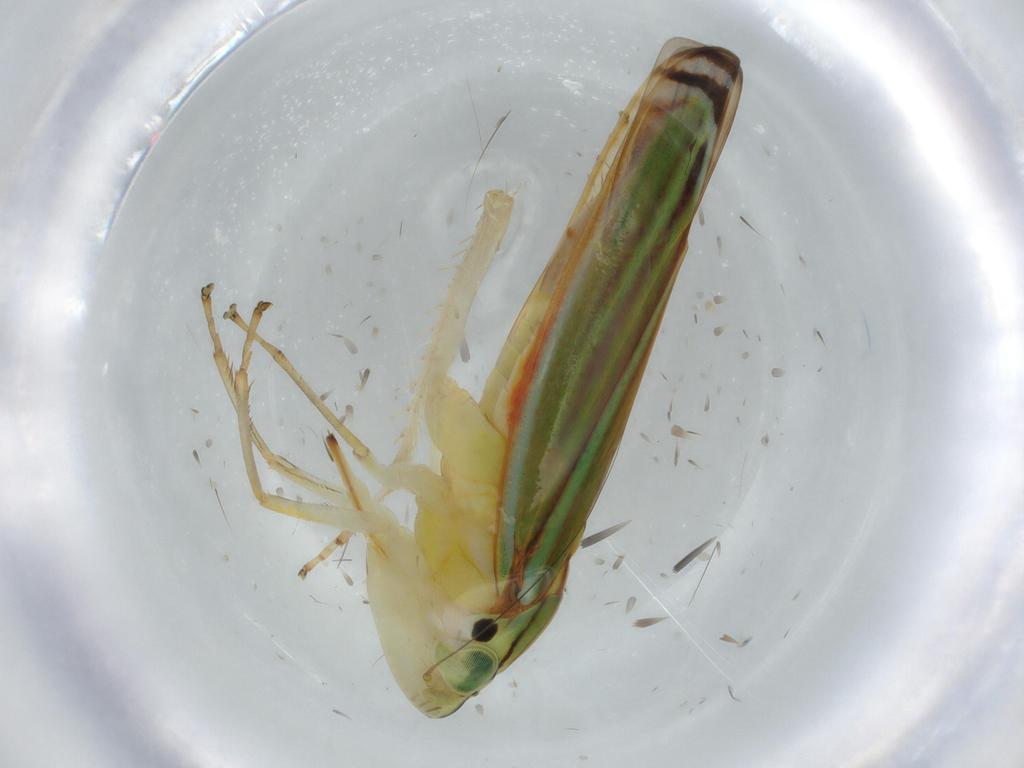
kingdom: Animalia
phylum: Arthropoda
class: Insecta
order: Hemiptera
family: Cicadellidae
